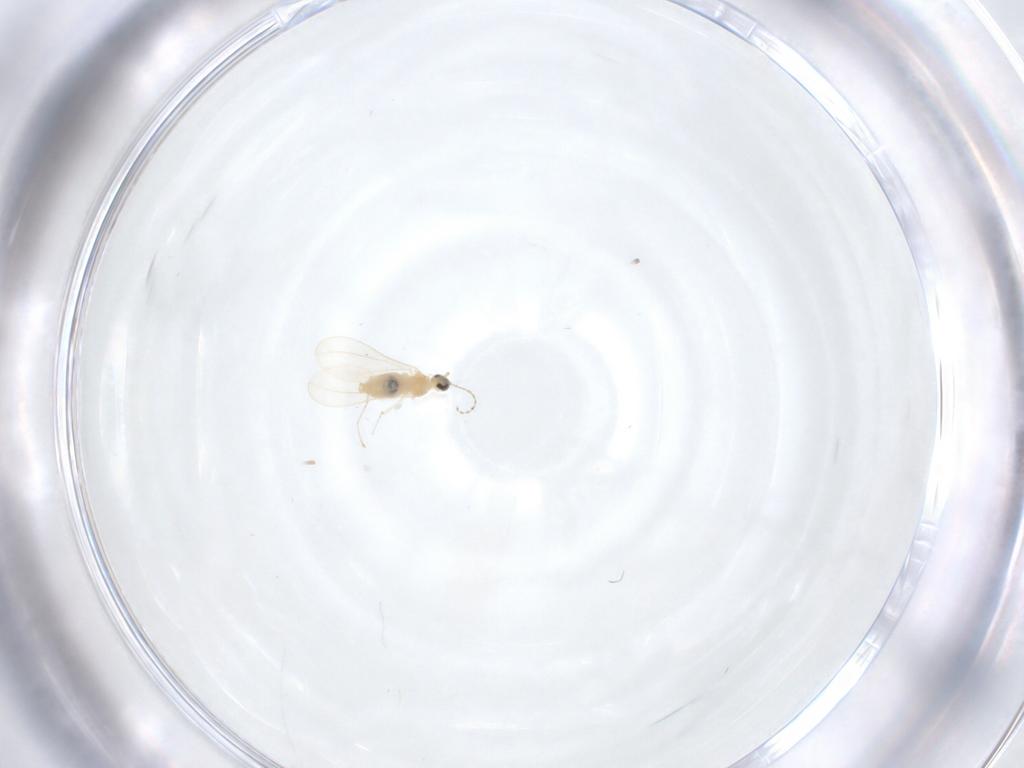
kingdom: Animalia
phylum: Arthropoda
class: Insecta
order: Diptera
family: Cecidomyiidae
